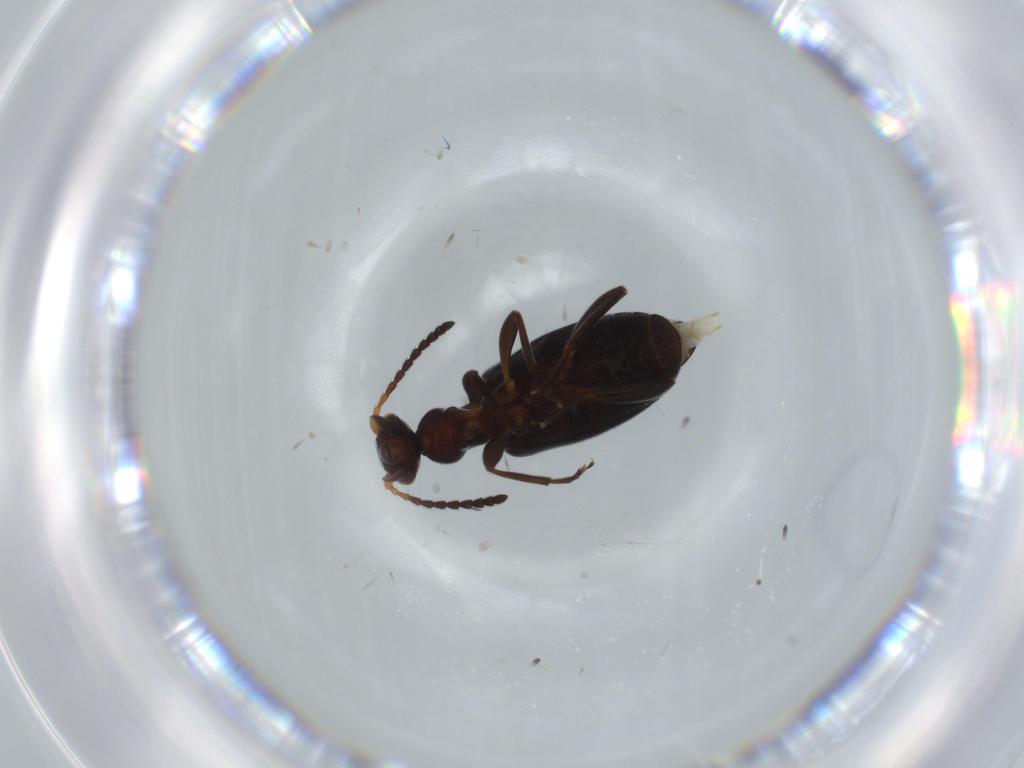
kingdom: Animalia
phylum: Arthropoda
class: Insecta
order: Coleoptera
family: Anthicidae
